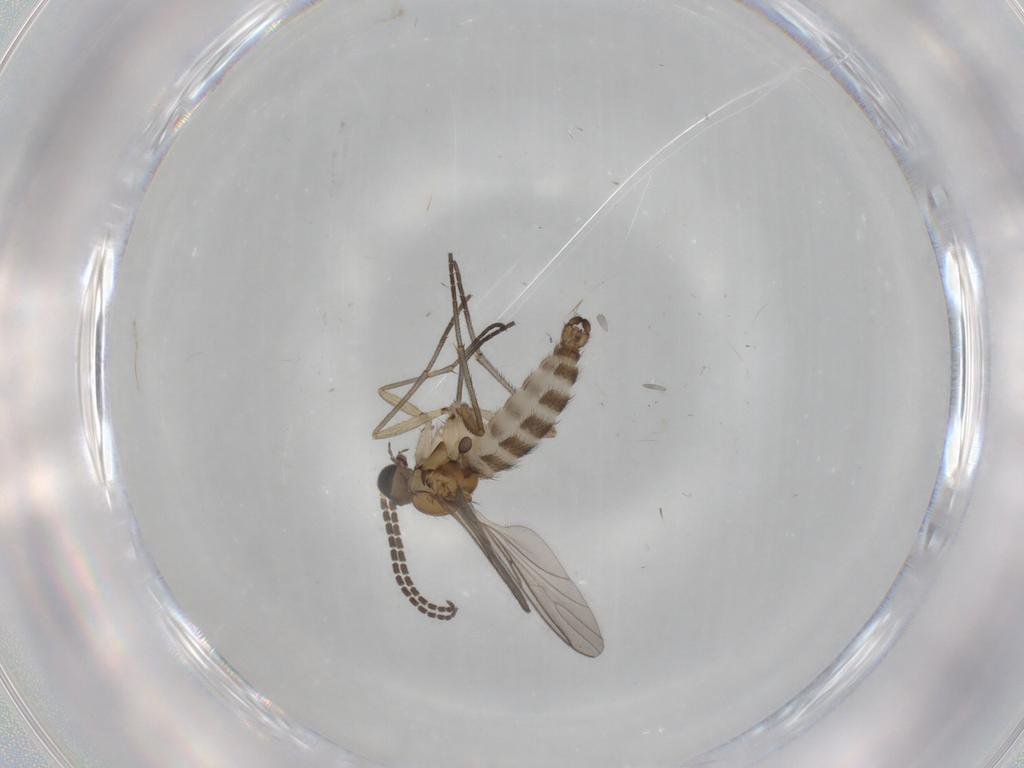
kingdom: Animalia
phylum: Arthropoda
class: Insecta
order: Diptera
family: Sciaridae
